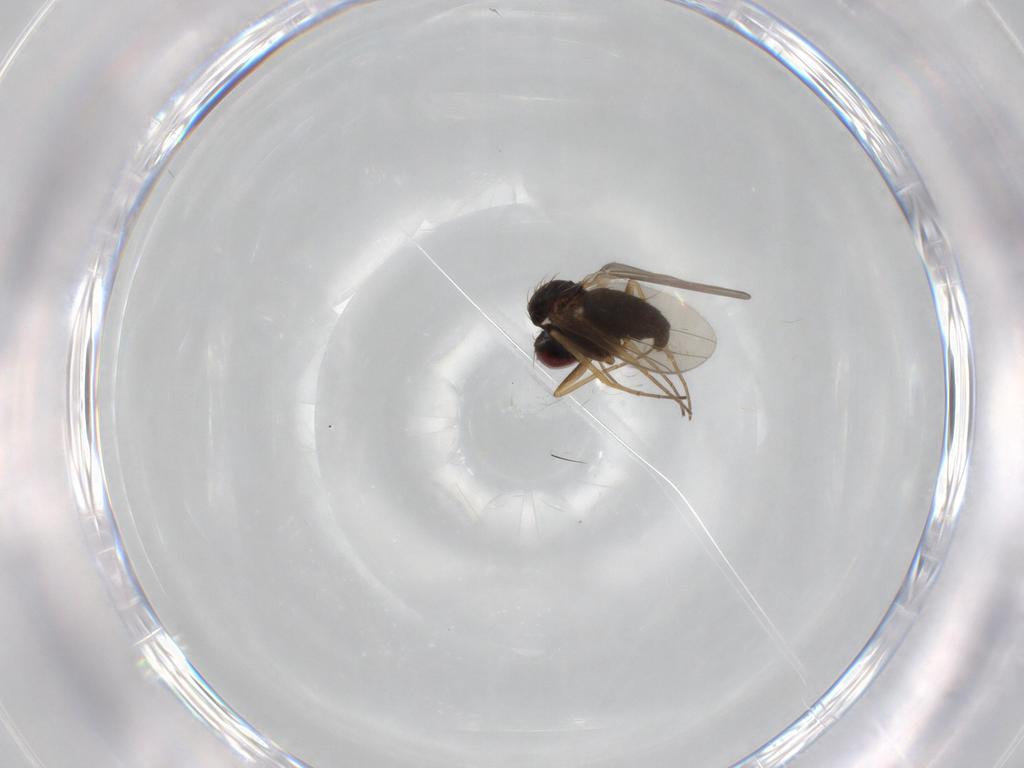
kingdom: Animalia
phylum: Arthropoda
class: Insecta
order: Diptera
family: Dolichopodidae
